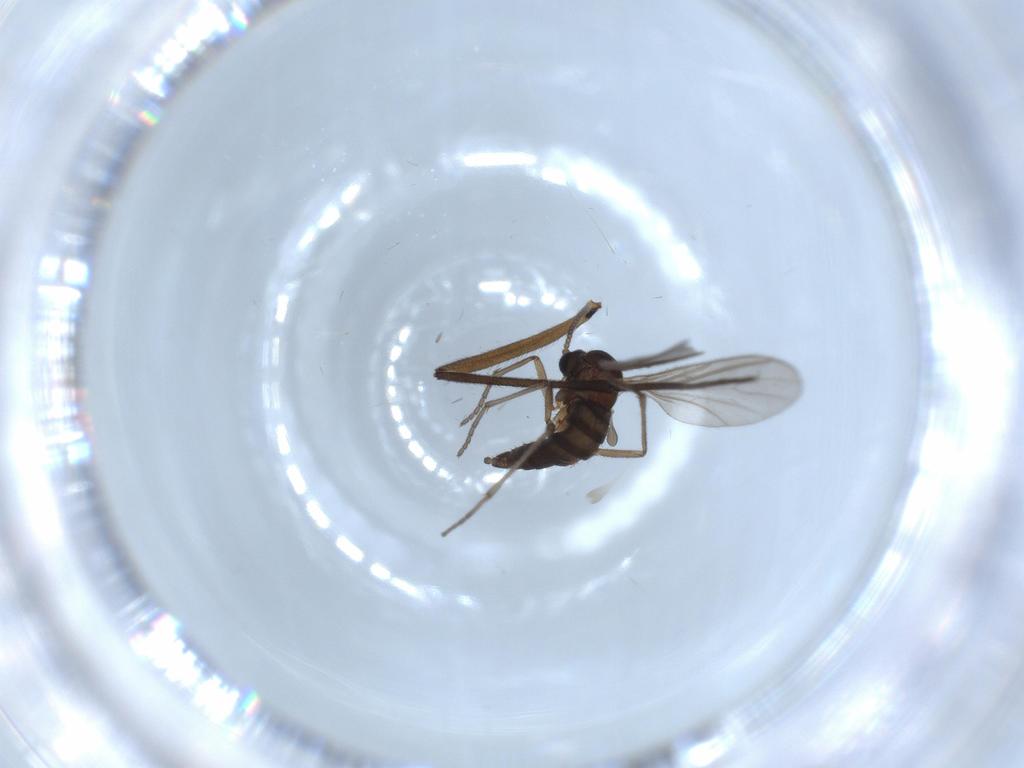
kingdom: Animalia
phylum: Arthropoda
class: Insecta
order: Diptera
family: Sciaridae
